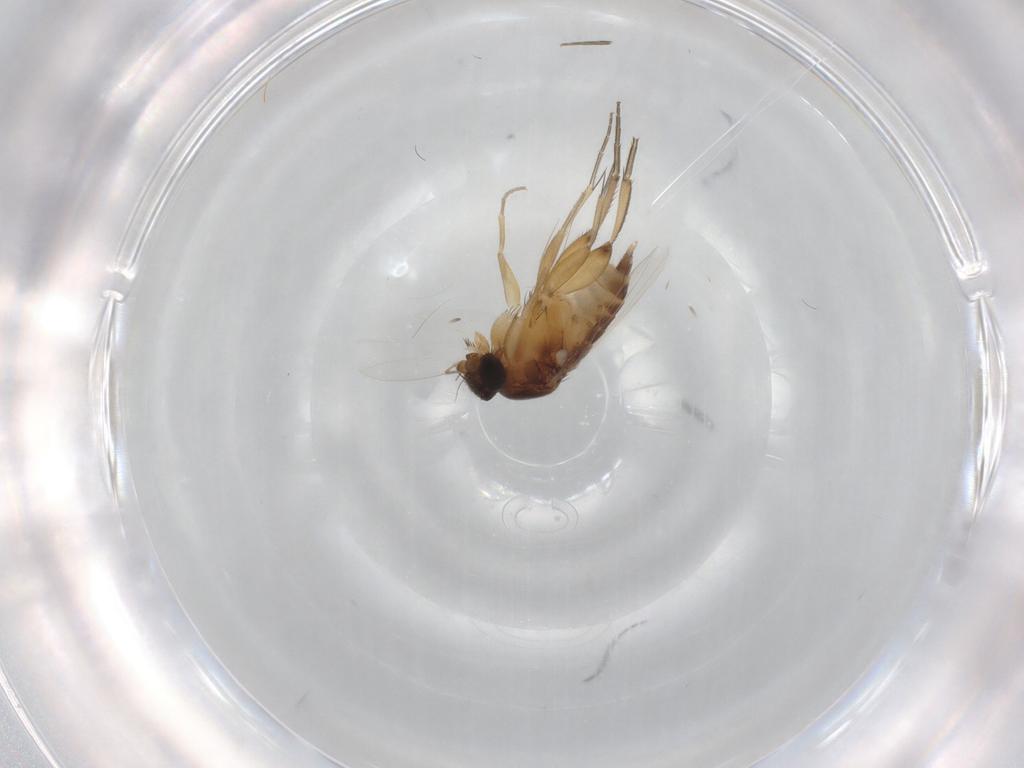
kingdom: Animalia
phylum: Arthropoda
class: Insecta
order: Diptera
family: Phoridae
